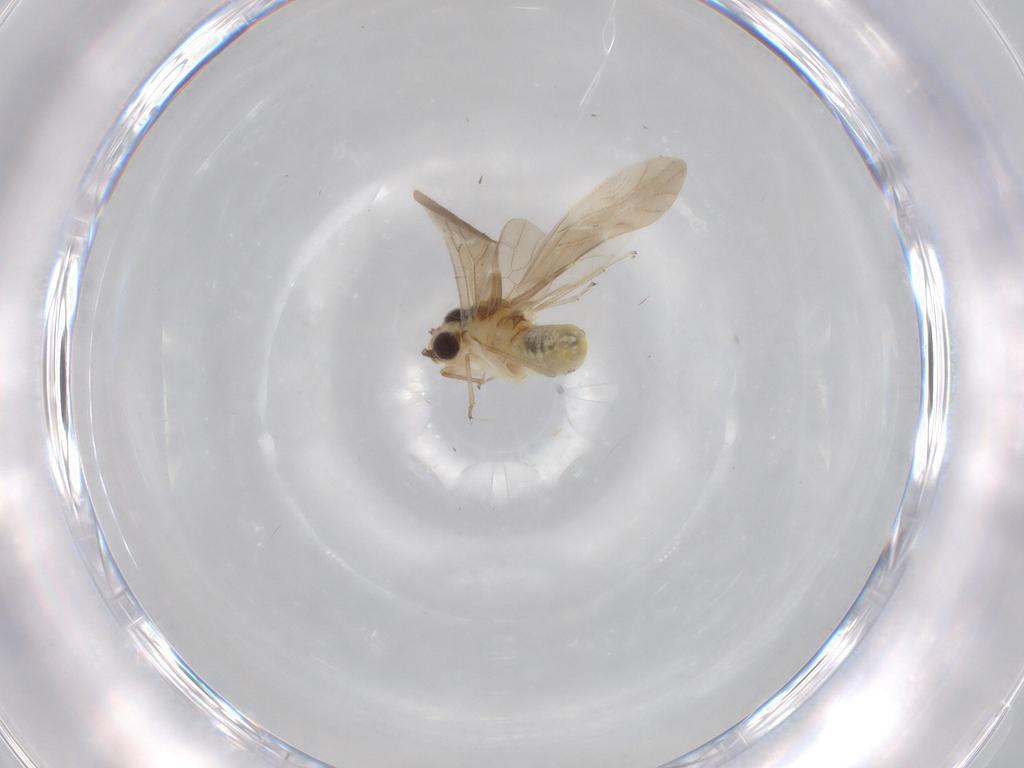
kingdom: Animalia
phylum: Arthropoda
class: Insecta
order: Psocodea
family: Caeciliusidae
